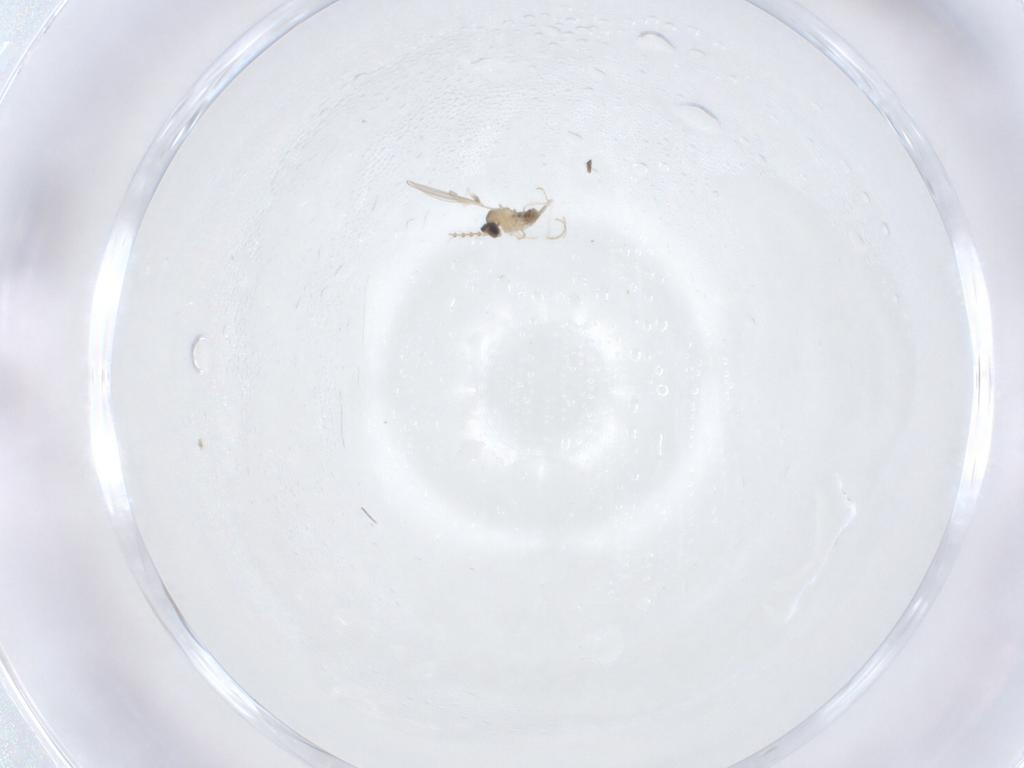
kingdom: Animalia
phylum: Arthropoda
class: Insecta
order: Diptera
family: Cecidomyiidae
